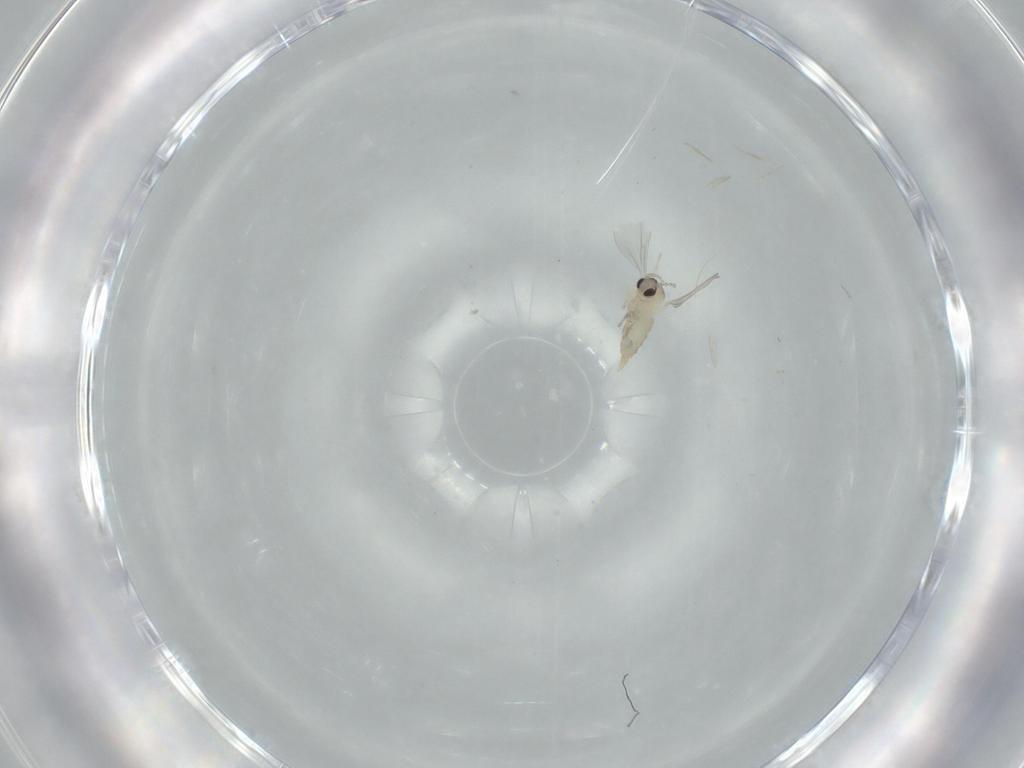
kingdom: Animalia
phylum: Arthropoda
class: Insecta
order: Diptera
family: Cecidomyiidae
